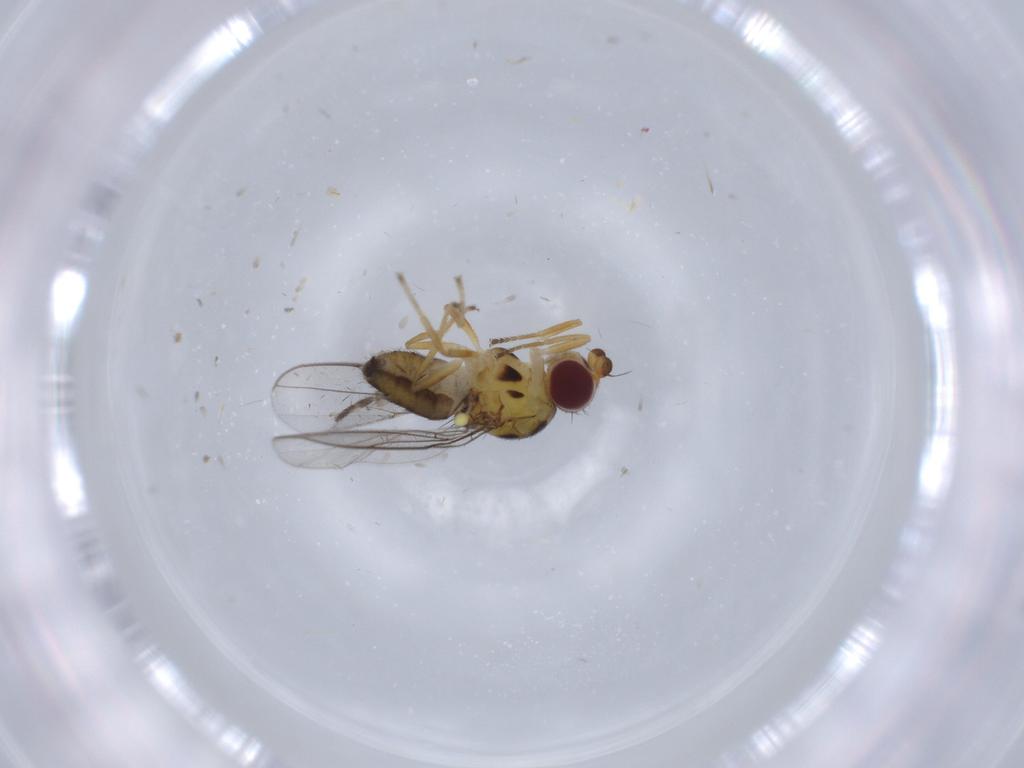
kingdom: Animalia
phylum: Arthropoda
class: Insecta
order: Diptera
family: Chloropidae
